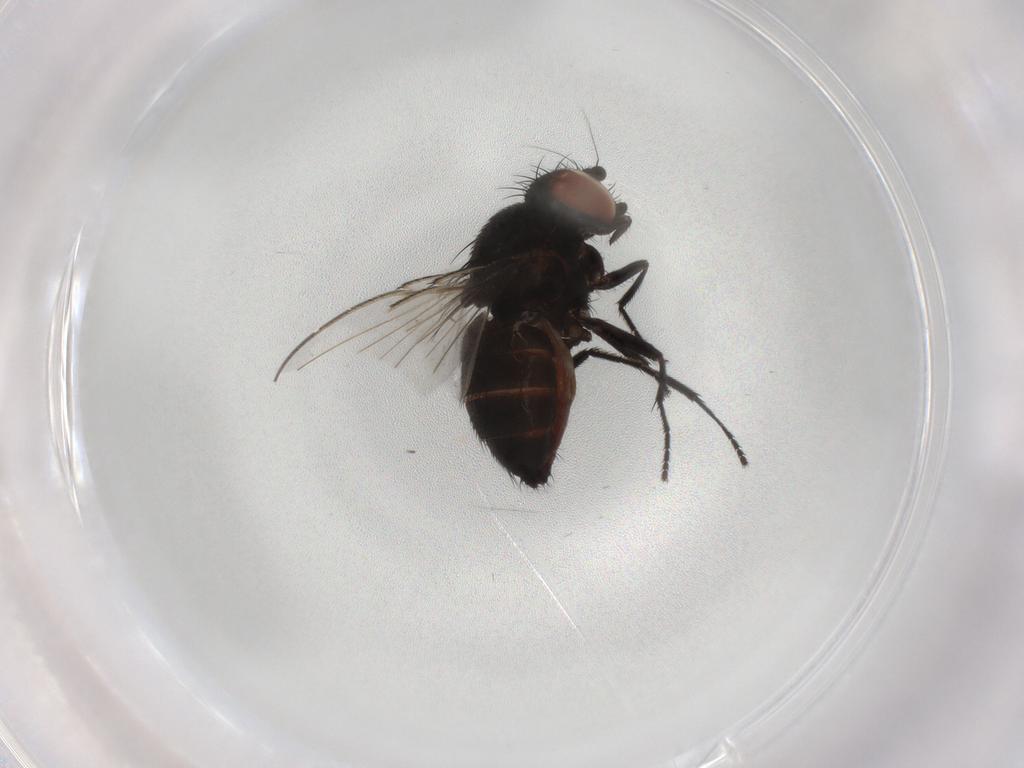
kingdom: Animalia
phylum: Arthropoda
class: Insecta
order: Diptera
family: Milichiidae
